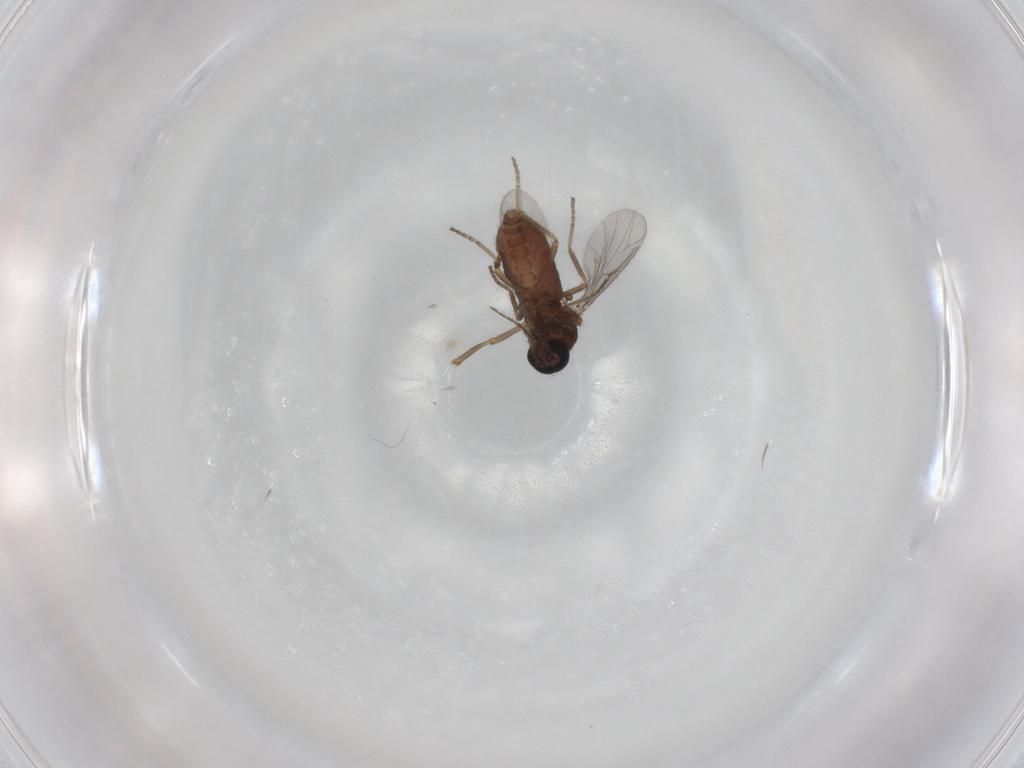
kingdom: Animalia
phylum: Arthropoda
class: Insecta
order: Diptera
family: Ceratopogonidae
